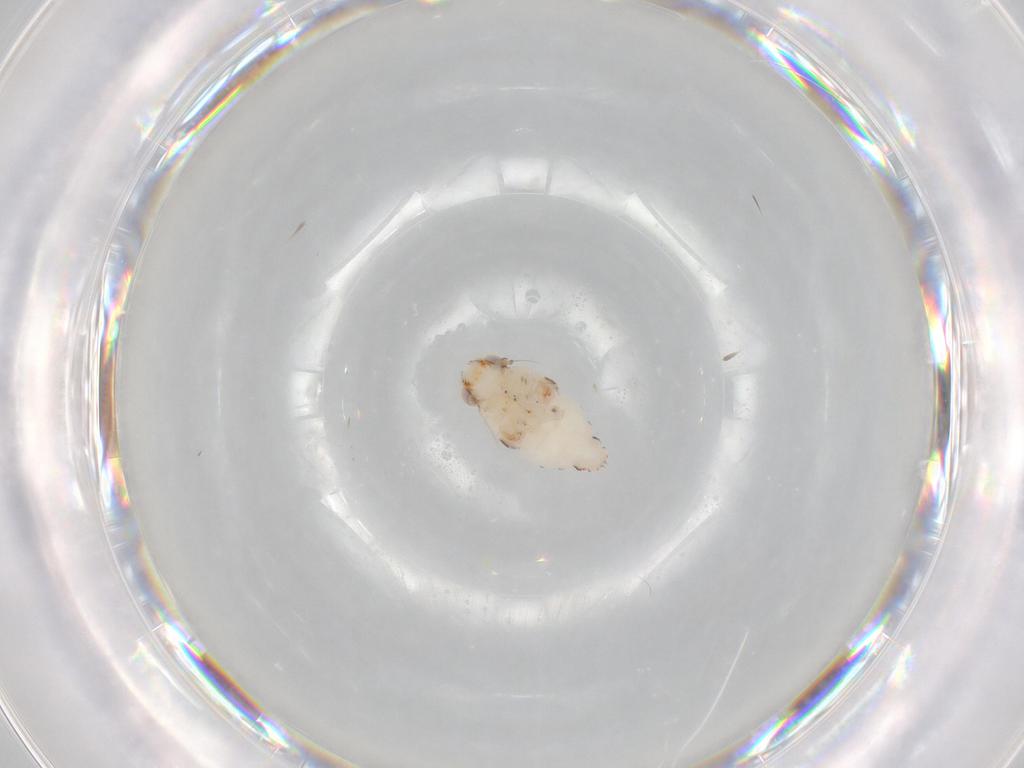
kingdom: Animalia
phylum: Arthropoda
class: Insecta
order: Hemiptera
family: Nogodinidae
